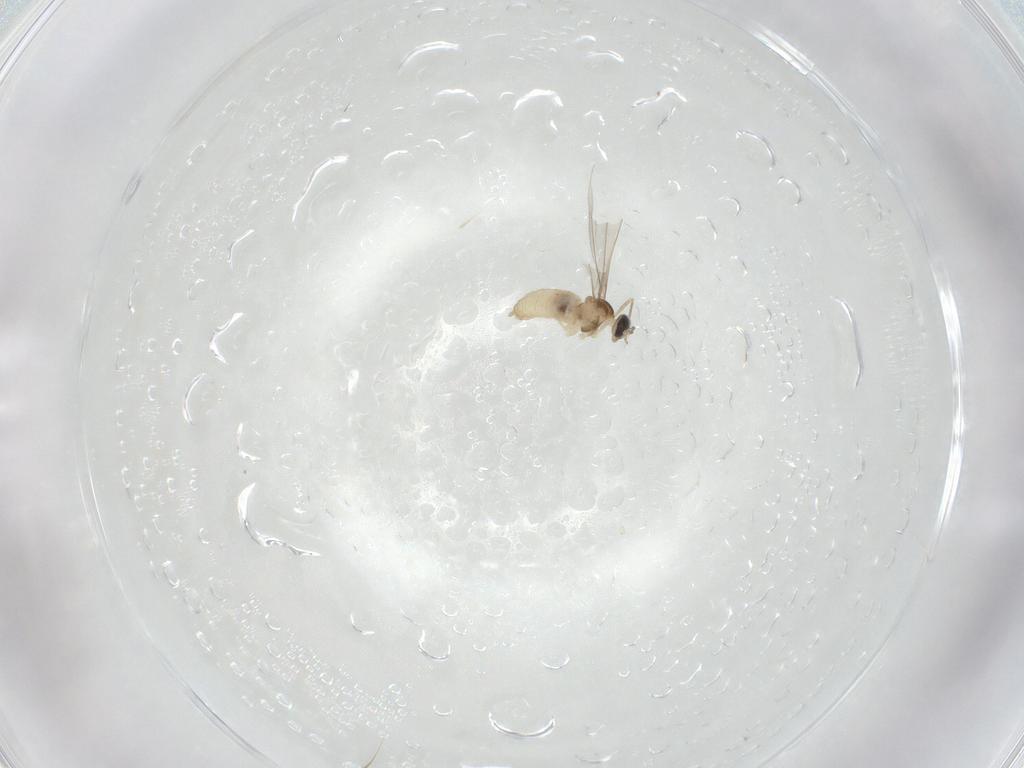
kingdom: Animalia
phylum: Arthropoda
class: Insecta
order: Diptera
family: Cecidomyiidae
